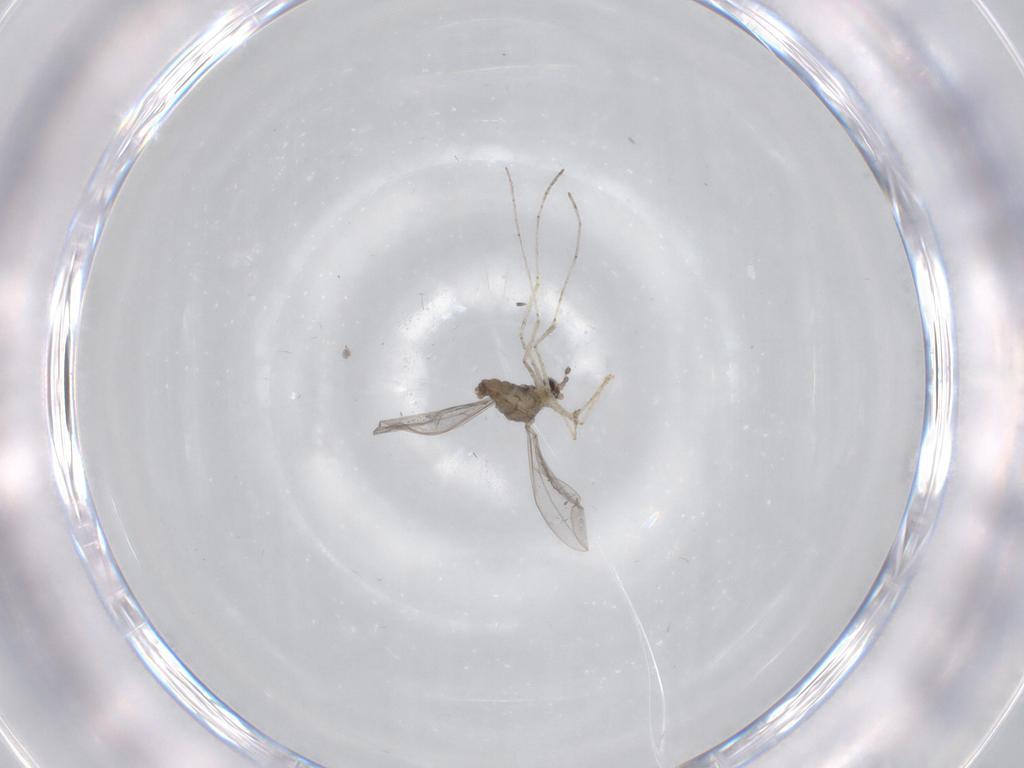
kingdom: Animalia
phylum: Arthropoda
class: Insecta
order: Diptera
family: Cecidomyiidae
